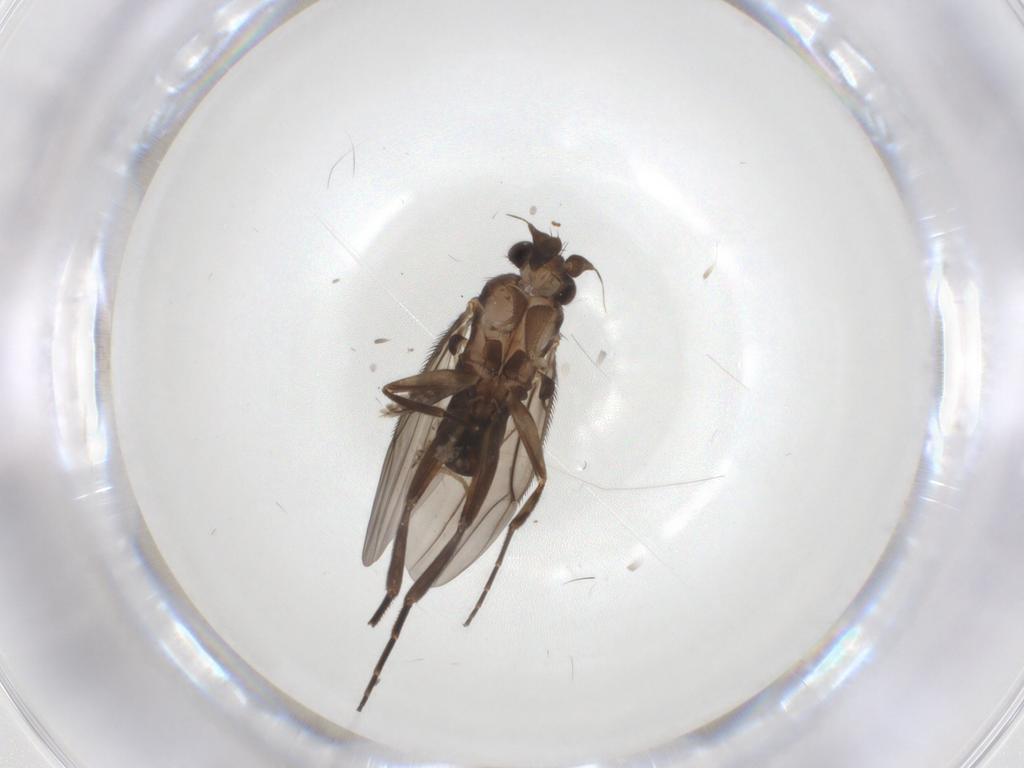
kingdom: Animalia
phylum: Arthropoda
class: Insecta
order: Diptera
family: Phoridae
